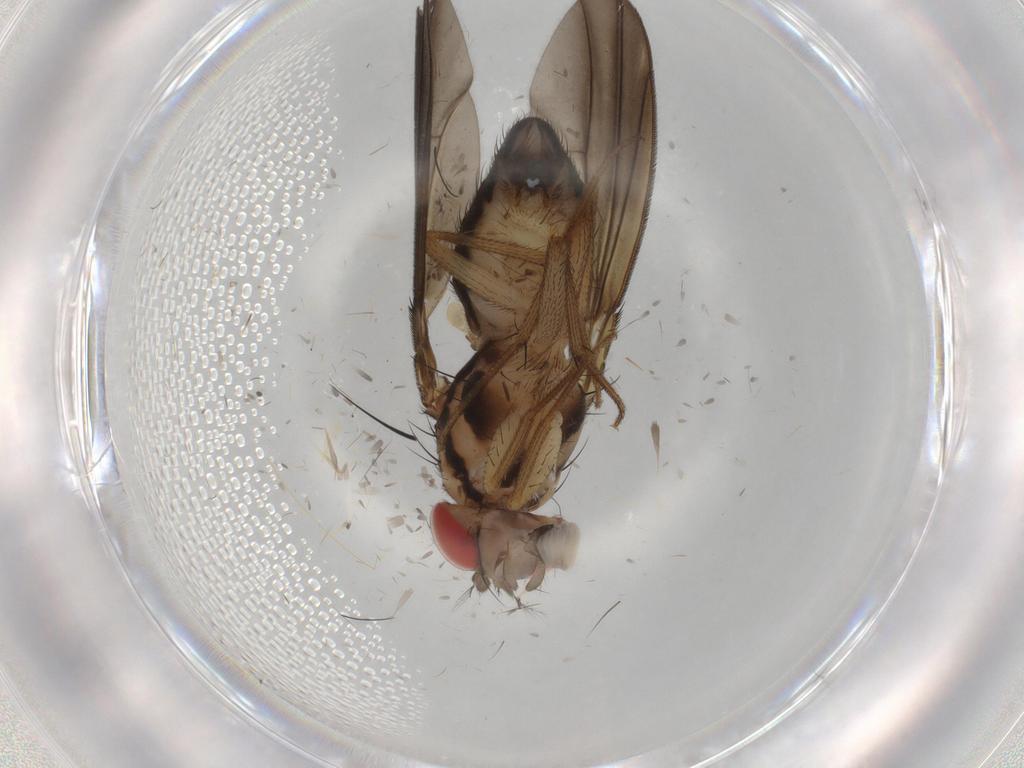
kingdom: Animalia
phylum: Arthropoda
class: Insecta
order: Diptera
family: Drosophilidae
